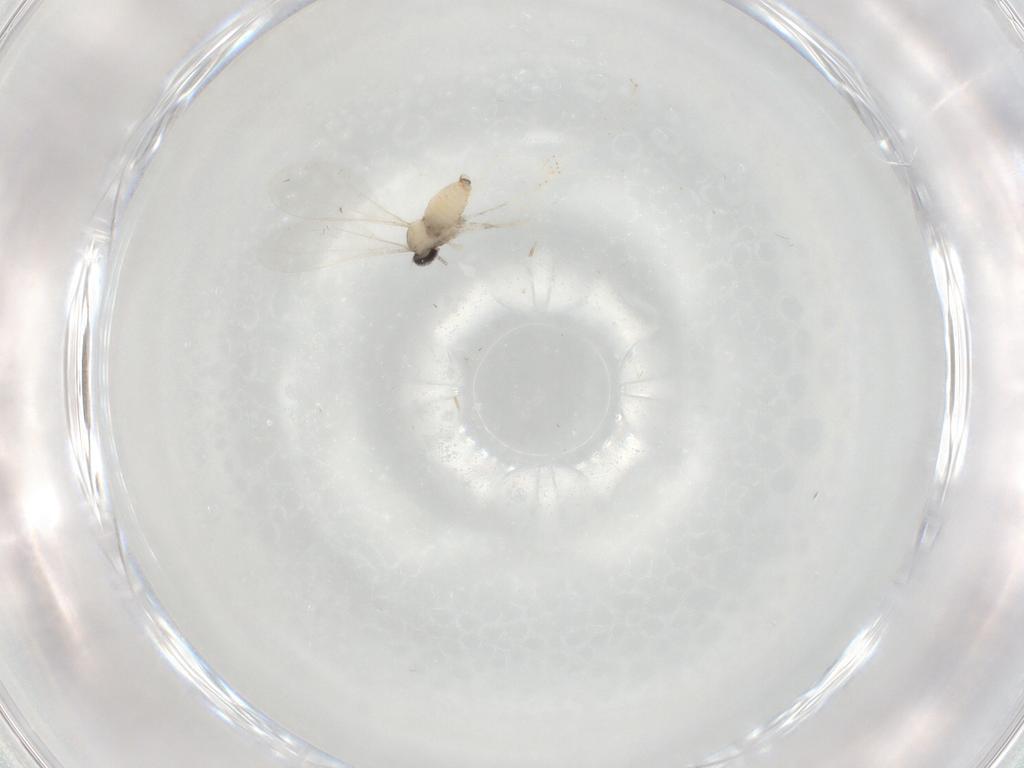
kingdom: Animalia
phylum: Arthropoda
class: Insecta
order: Diptera
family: Cecidomyiidae
